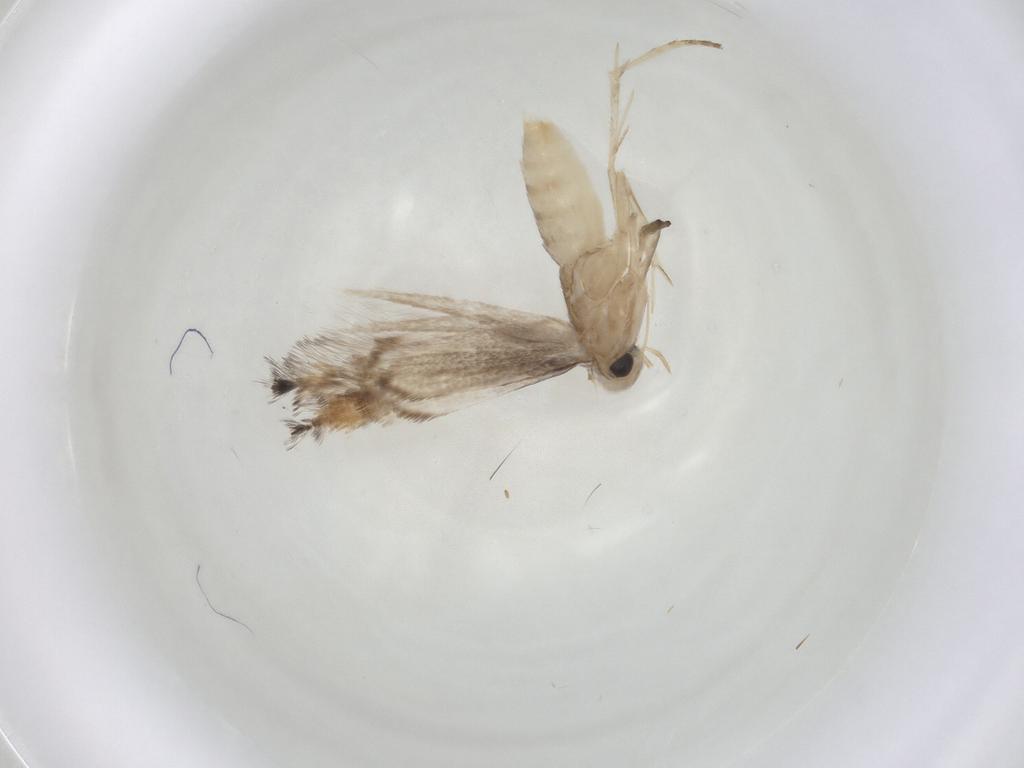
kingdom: Animalia
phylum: Arthropoda
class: Insecta
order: Lepidoptera
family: Gracillariidae
